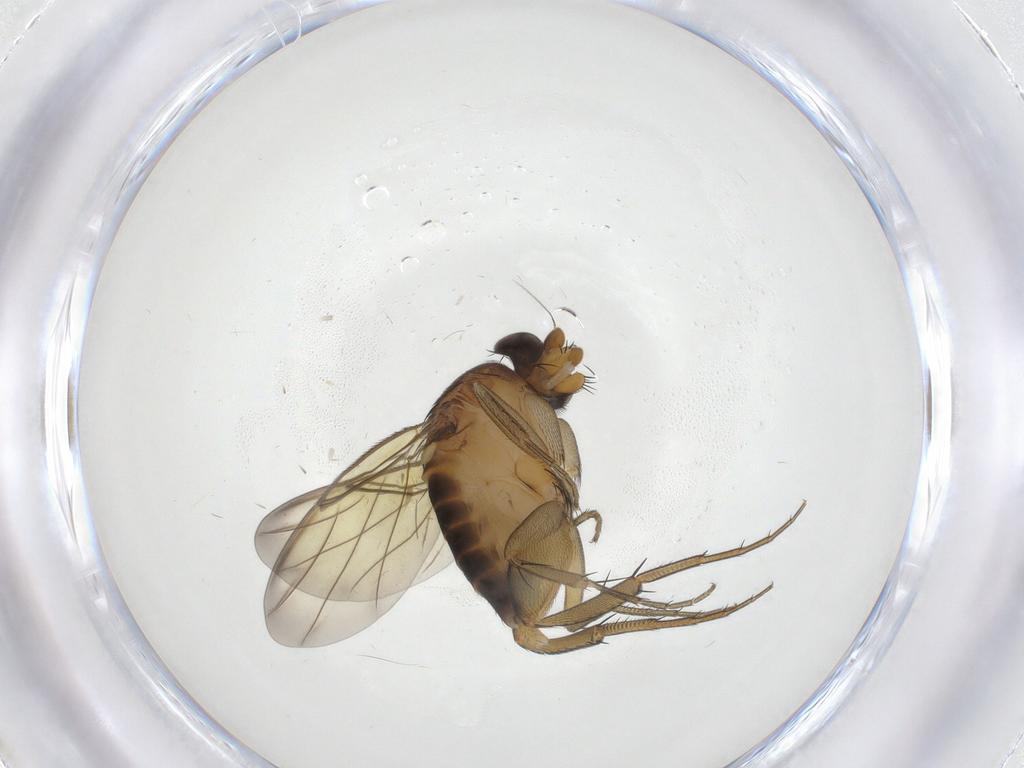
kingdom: Animalia
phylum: Arthropoda
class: Insecta
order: Diptera
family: Phoridae
